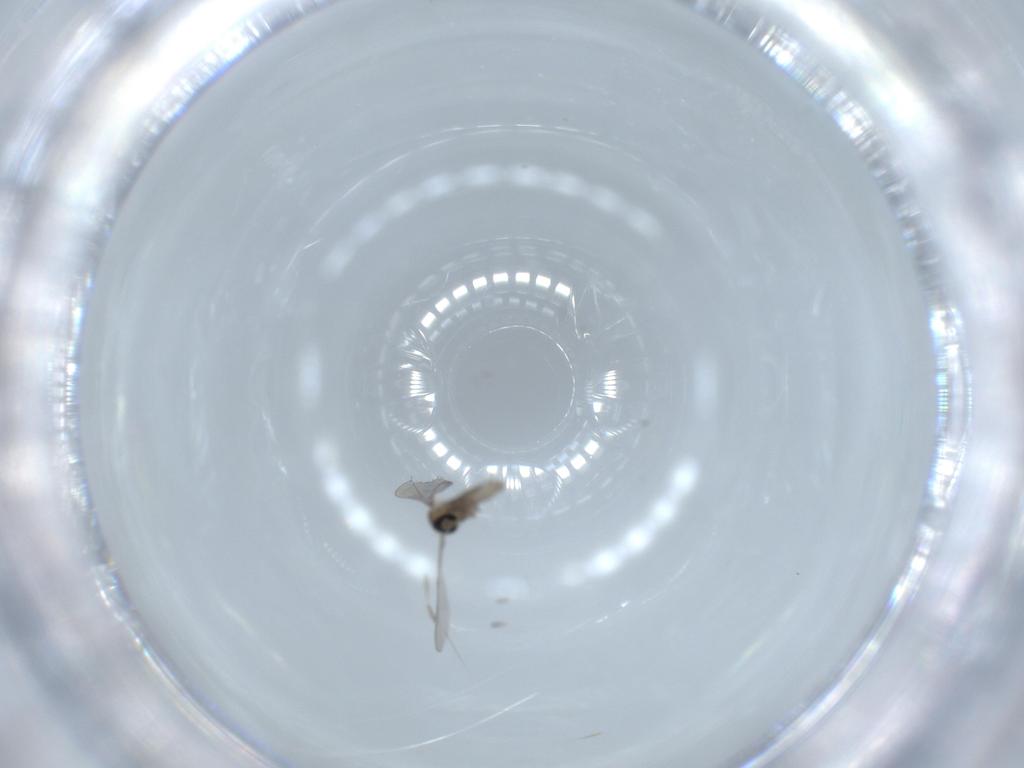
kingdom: Animalia
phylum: Arthropoda
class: Insecta
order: Diptera
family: Cecidomyiidae
